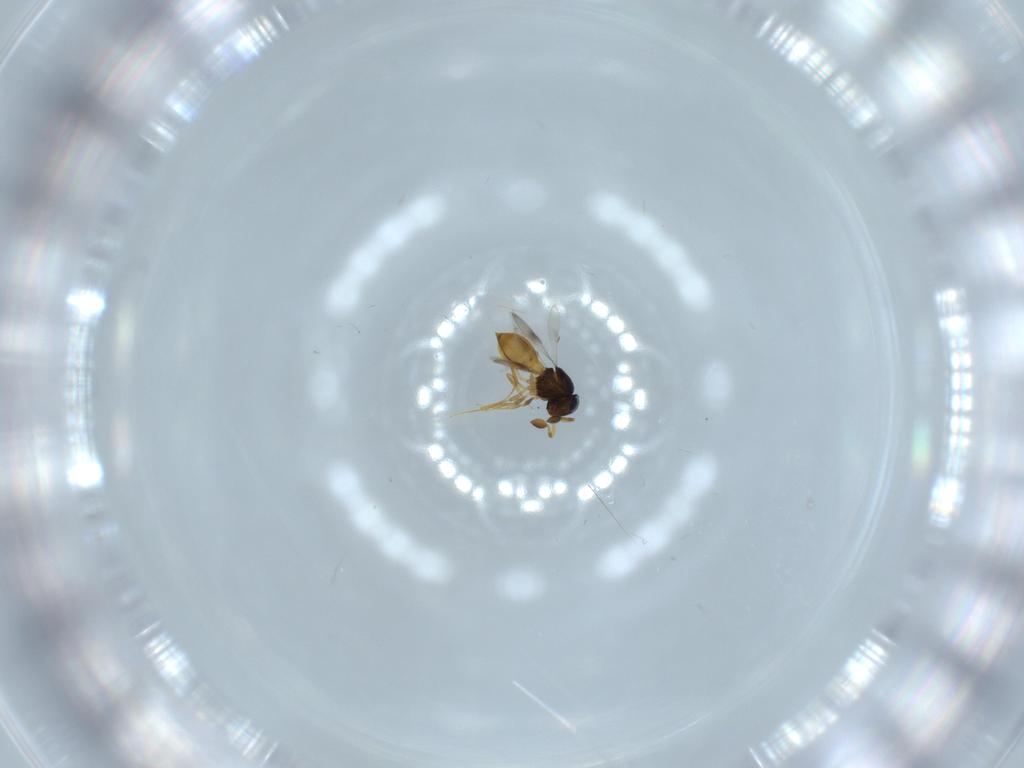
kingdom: Animalia
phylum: Arthropoda
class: Insecta
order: Hymenoptera
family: Scelionidae
